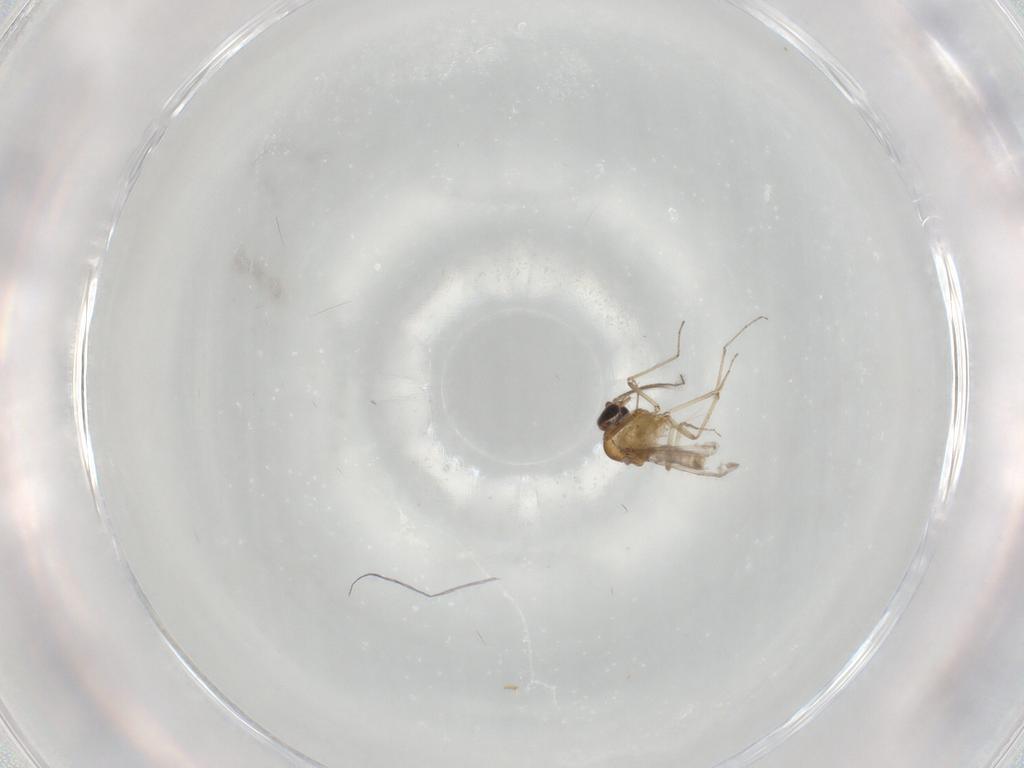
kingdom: Animalia
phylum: Arthropoda
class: Insecta
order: Diptera
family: Ceratopogonidae
